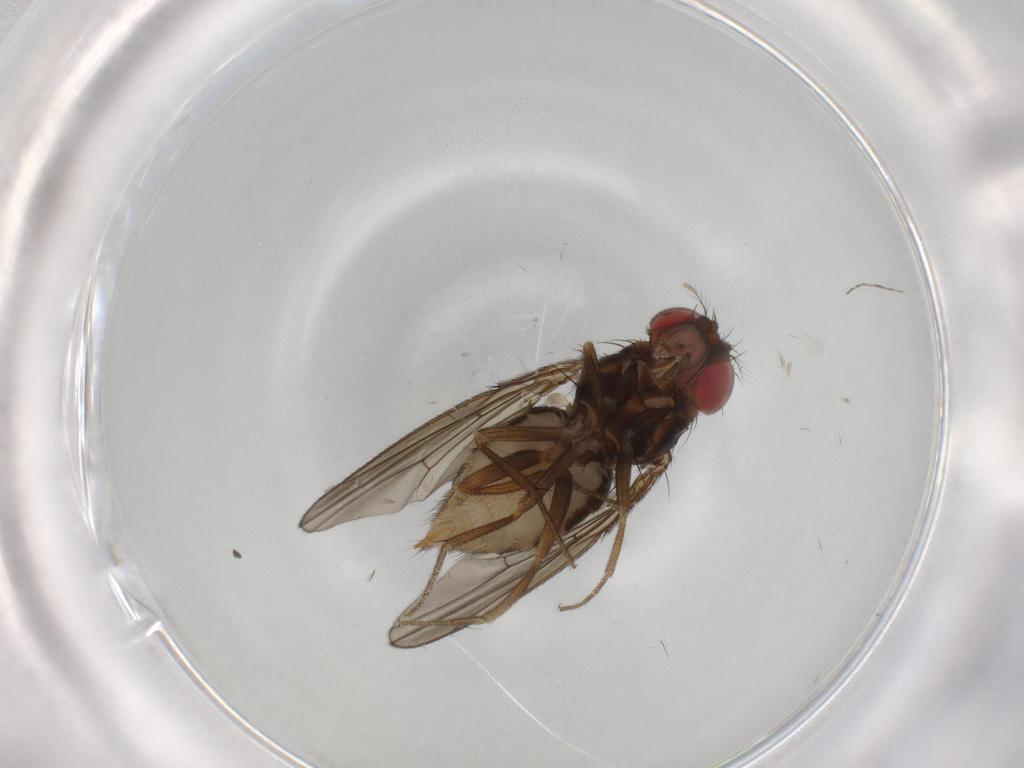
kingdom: Animalia
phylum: Arthropoda
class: Insecta
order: Diptera
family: Drosophilidae
